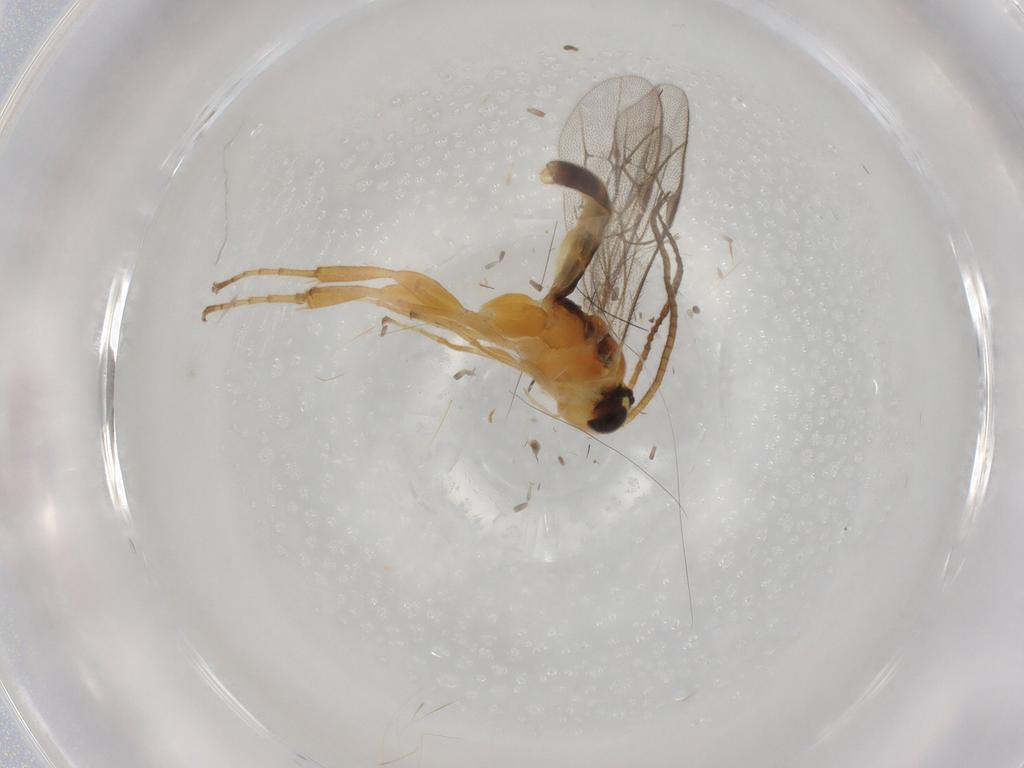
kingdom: Animalia
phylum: Arthropoda
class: Insecta
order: Hymenoptera
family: Ichneumonidae
